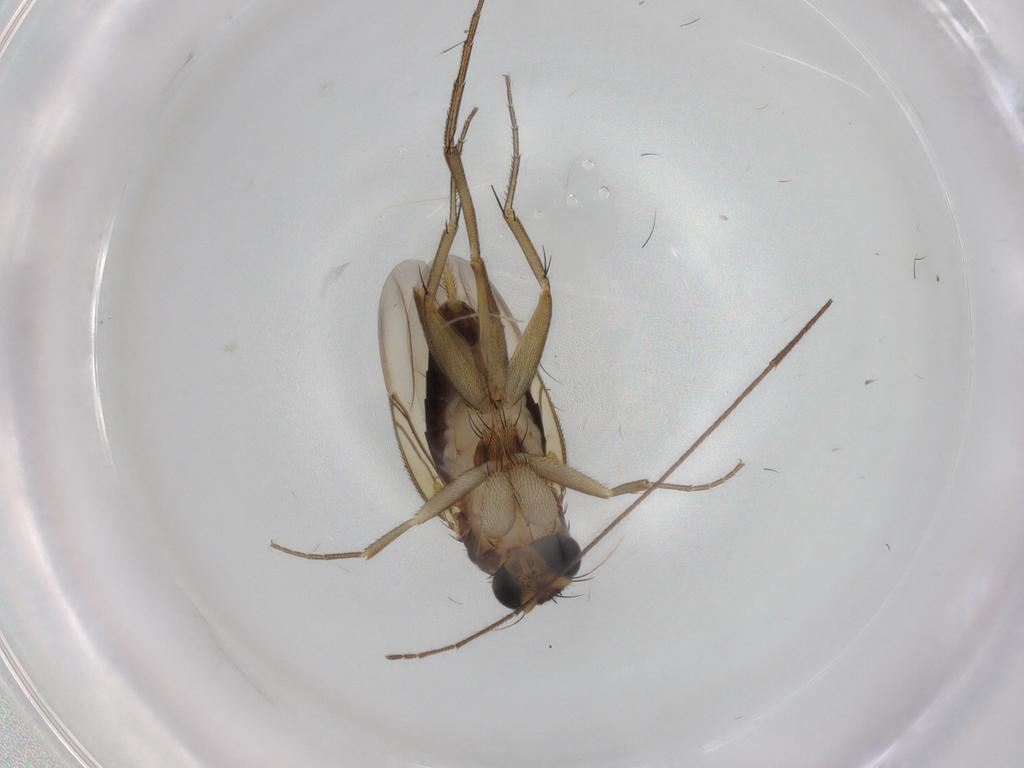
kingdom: Animalia
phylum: Arthropoda
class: Insecta
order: Diptera
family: Phoridae
